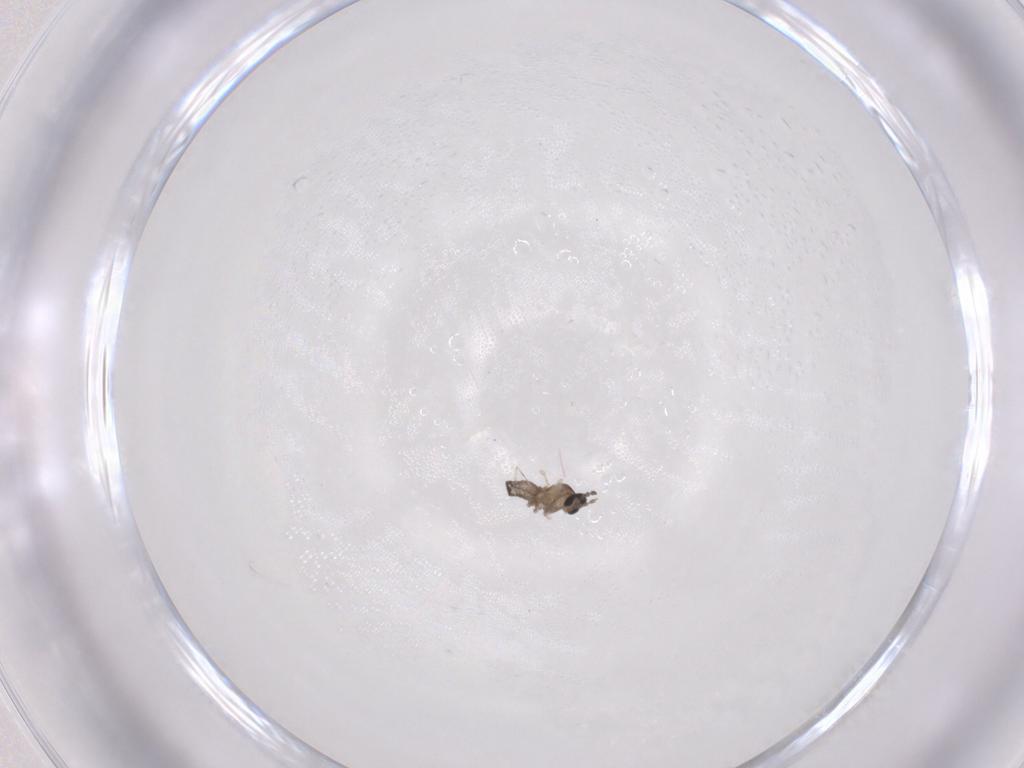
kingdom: Animalia
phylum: Arthropoda
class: Insecta
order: Diptera
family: Cecidomyiidae
